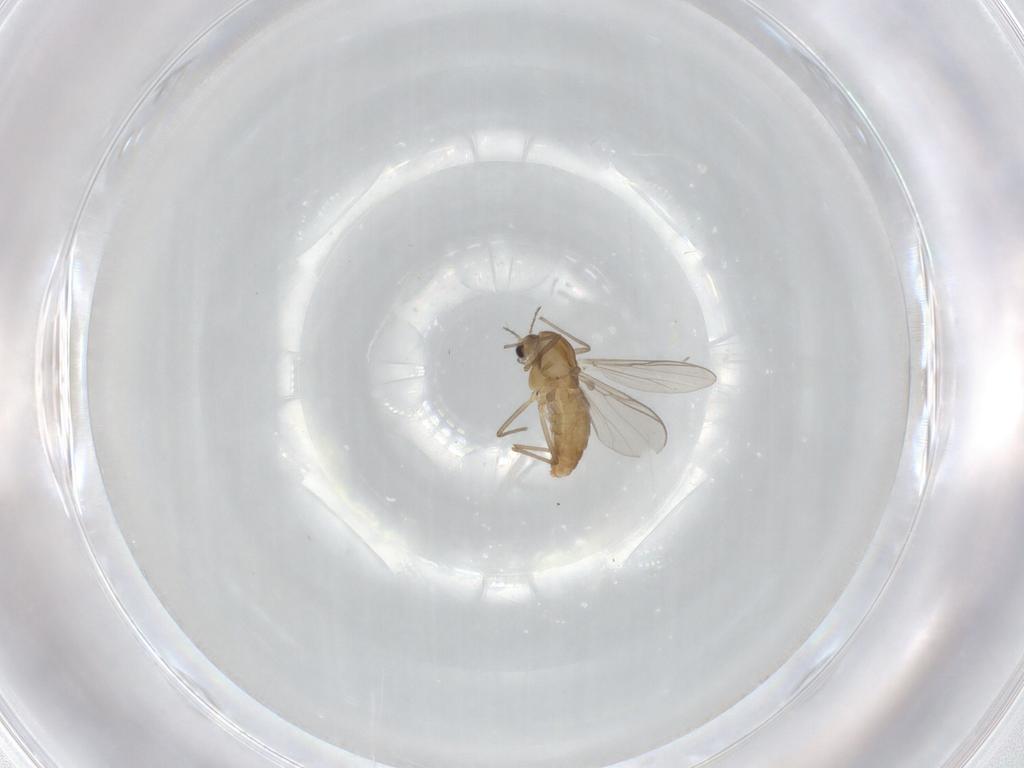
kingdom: Animalia
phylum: Arthropoda
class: Insecta
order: Diptera
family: Chironomidae
